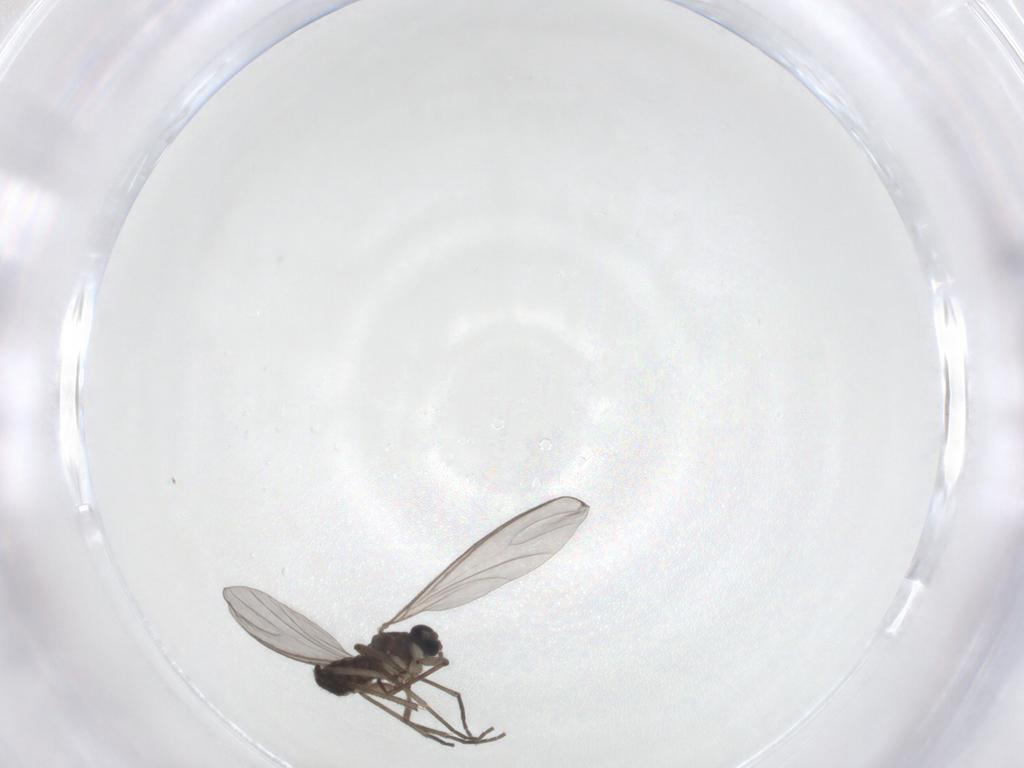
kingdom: Animalia
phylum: Arthropoda
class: Insecta
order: Diptera
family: Sciaridae
